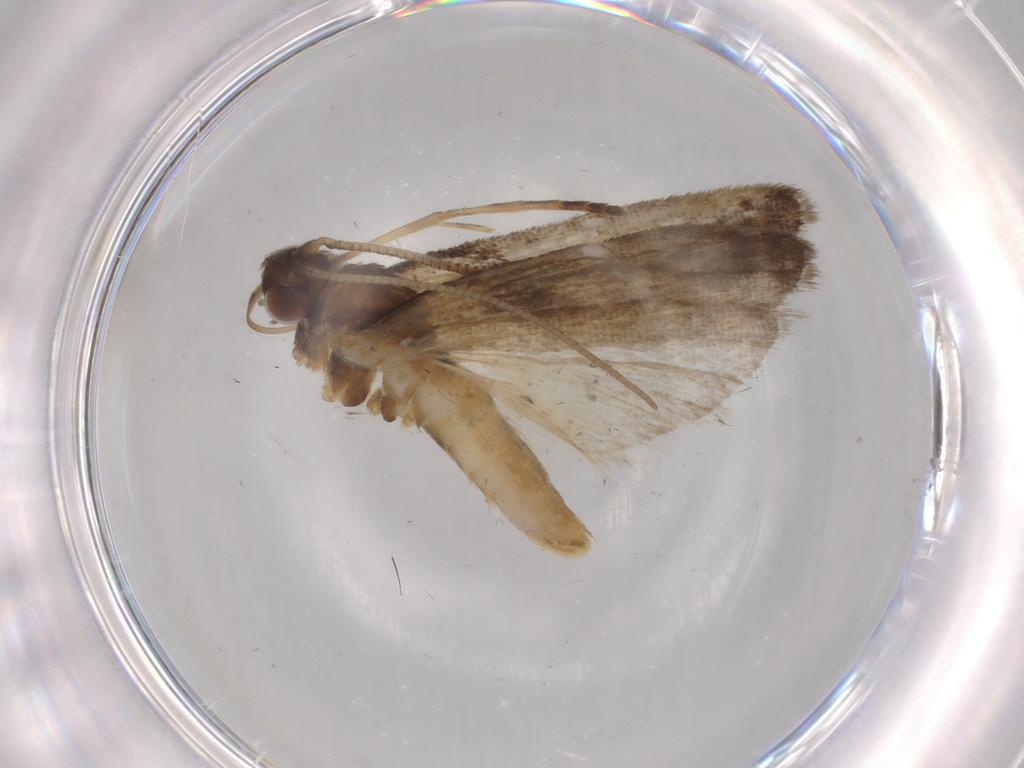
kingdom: Animalia
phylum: Arthropoda
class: Insecta
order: Lepidoptera
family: Noctuidae
